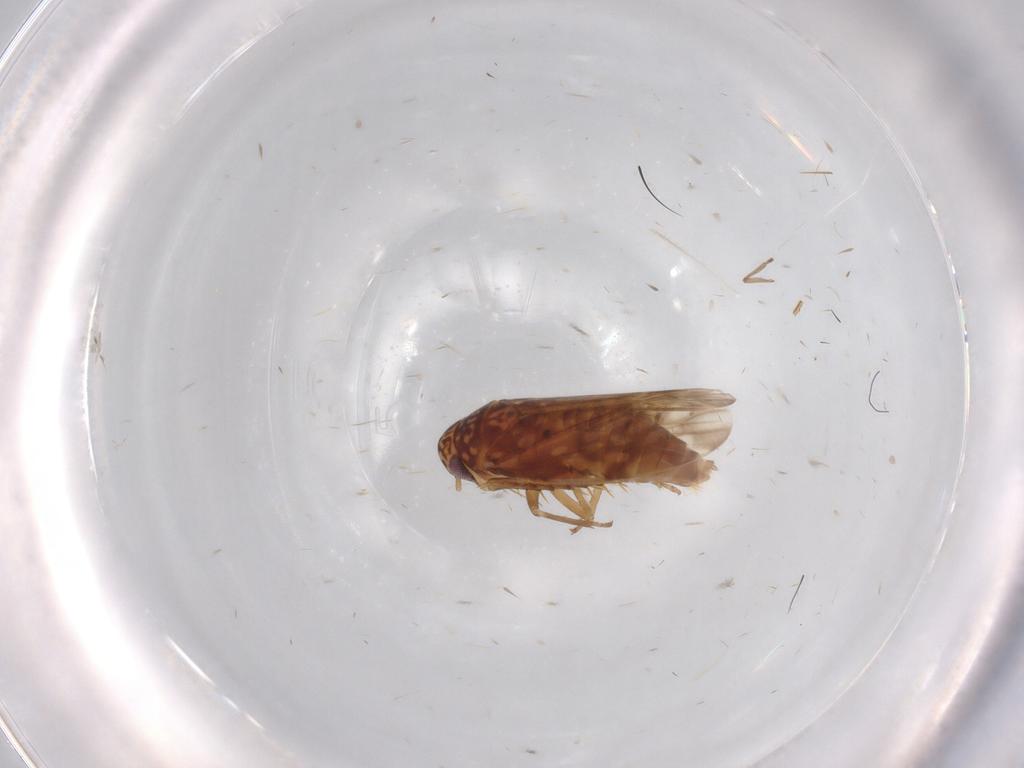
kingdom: Animalia
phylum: Arthropoda
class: Insecta
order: Hemiptera
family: Cicadellidae
